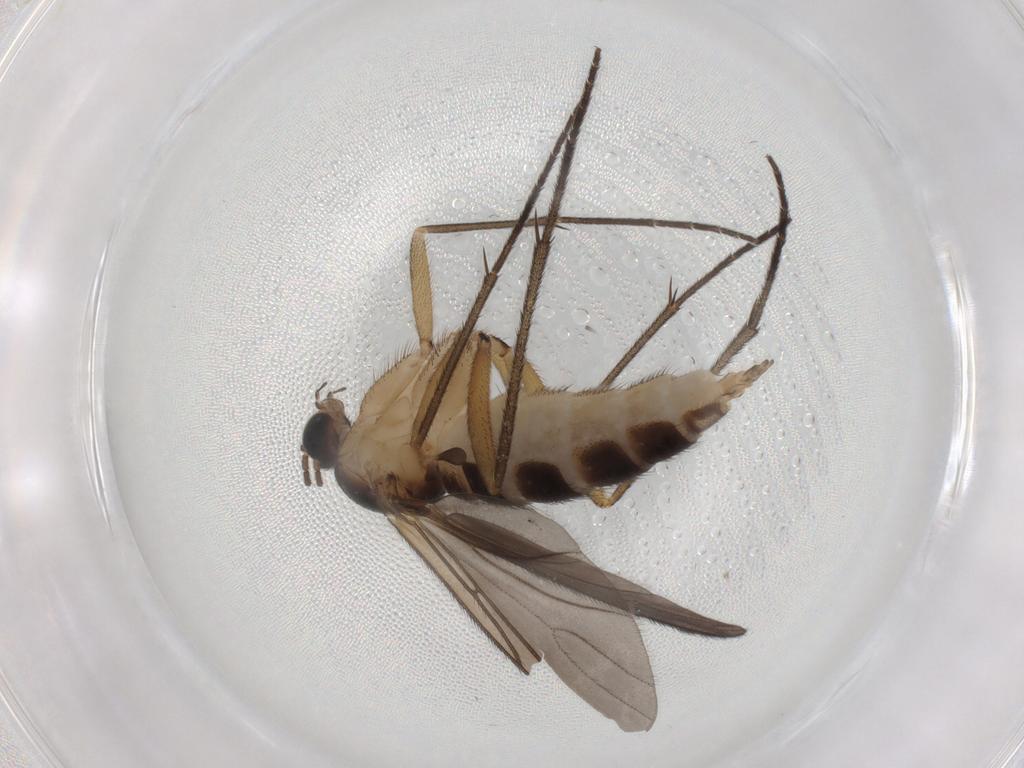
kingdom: Animalia
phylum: Arthropoda
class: Insecta
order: Diptera
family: Sciaridae
